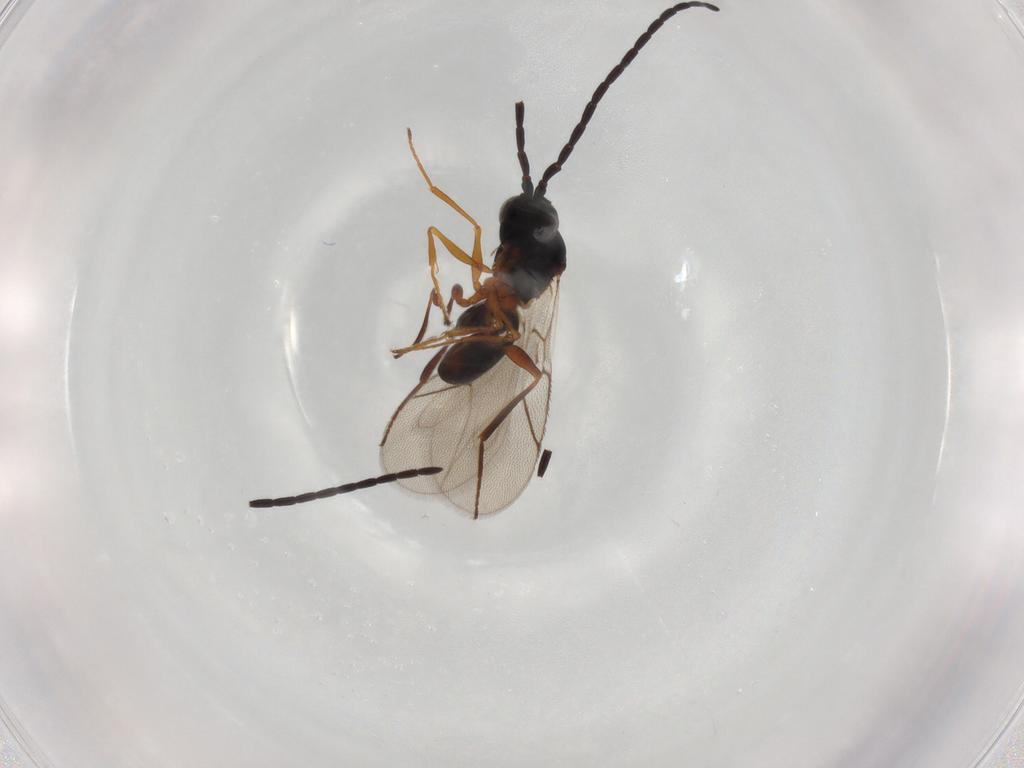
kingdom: Animalia
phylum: Arthropoda
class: Insecta
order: Hymenoptera
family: Figitidae
